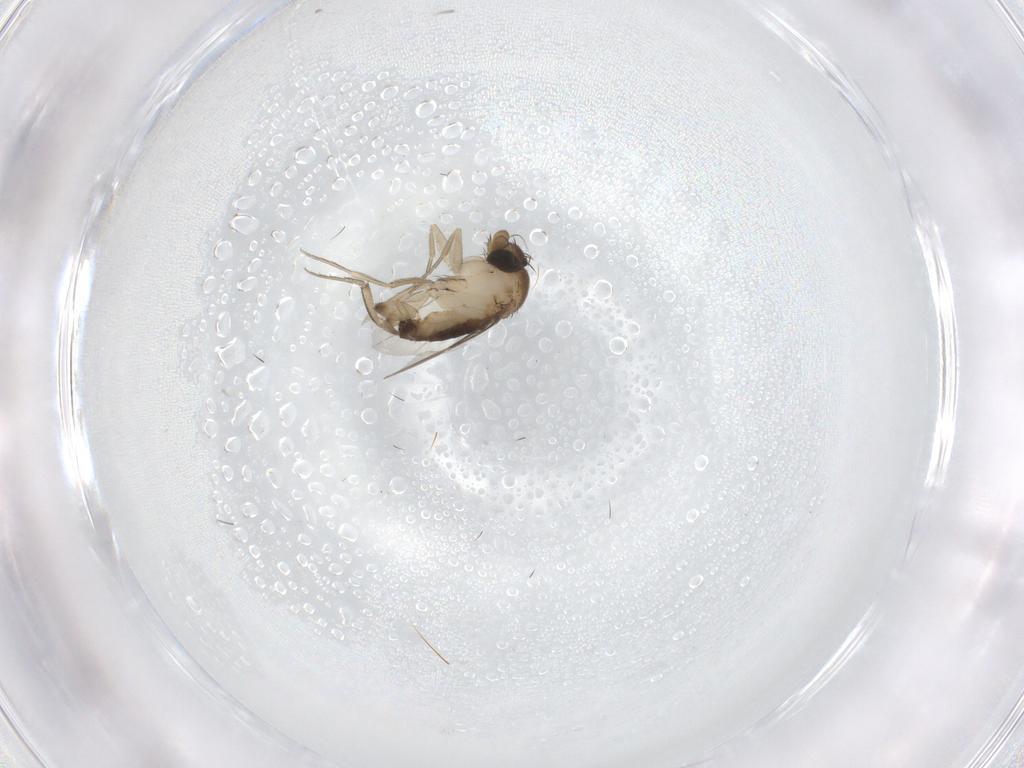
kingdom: Animalia
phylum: Arthropoda
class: Insecta
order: Diptera
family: Phoridae
